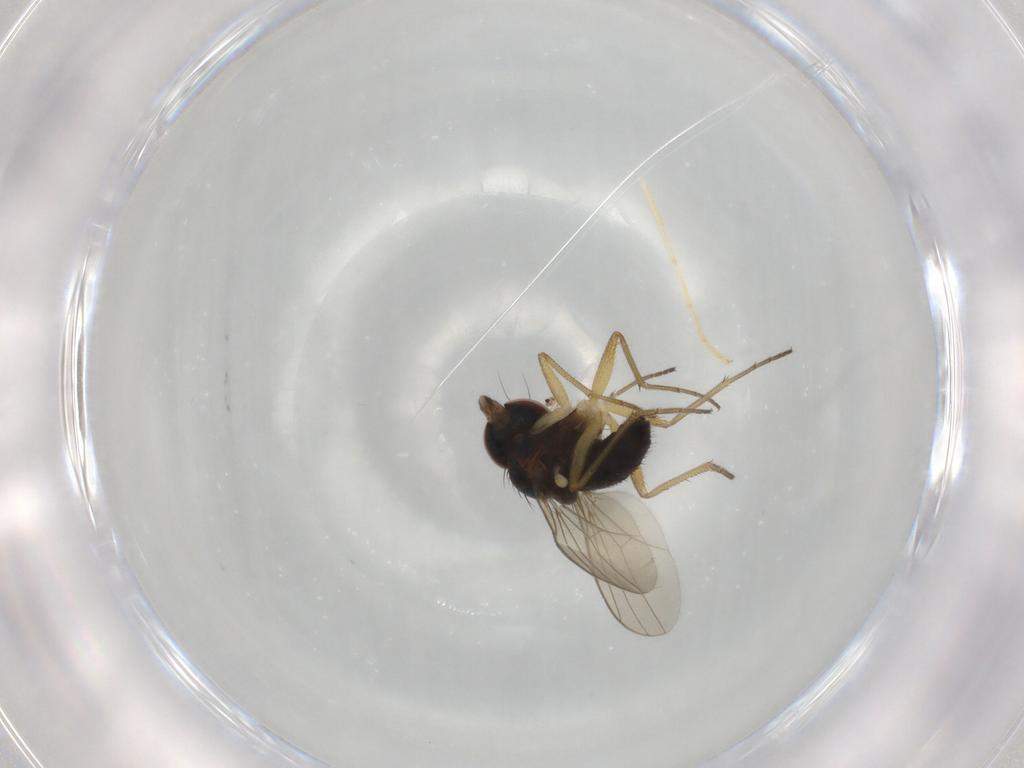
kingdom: Animalia
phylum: Arthropoda
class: Insecta
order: Diptera
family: Dolichopodidae
